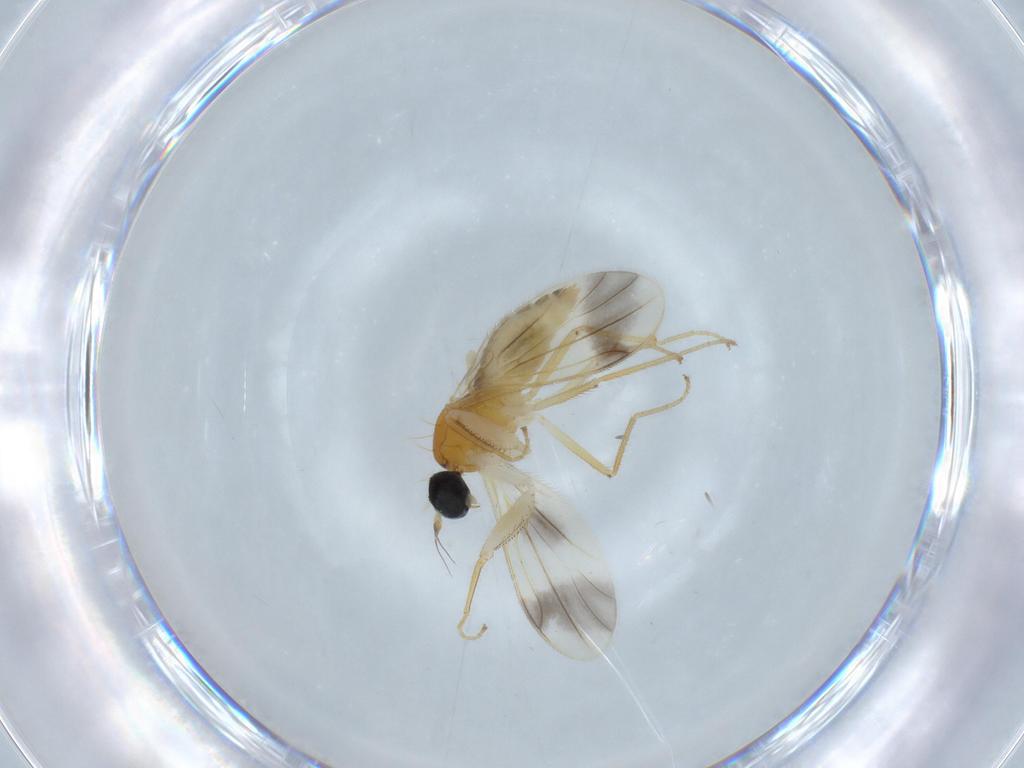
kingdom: Animalia
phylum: Arthropoda
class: Insecta
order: Diptera
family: Empididae
